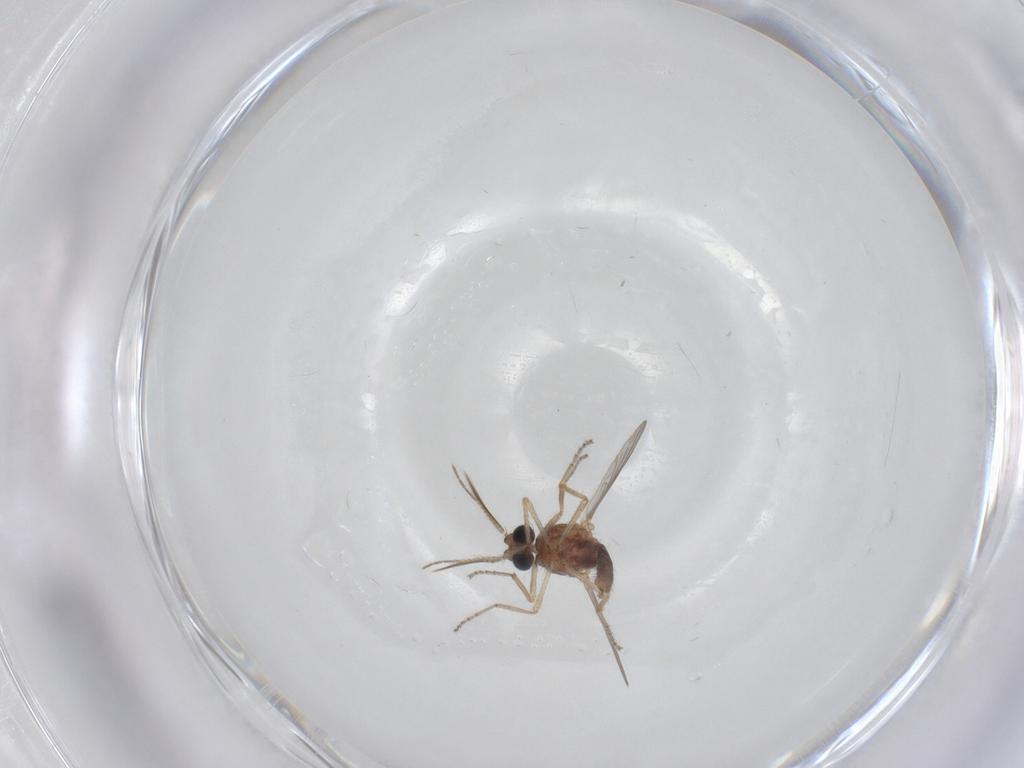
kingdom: Animalia
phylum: Arthropoda
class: Insecta
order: Diptera
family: Ceratopogonidae
